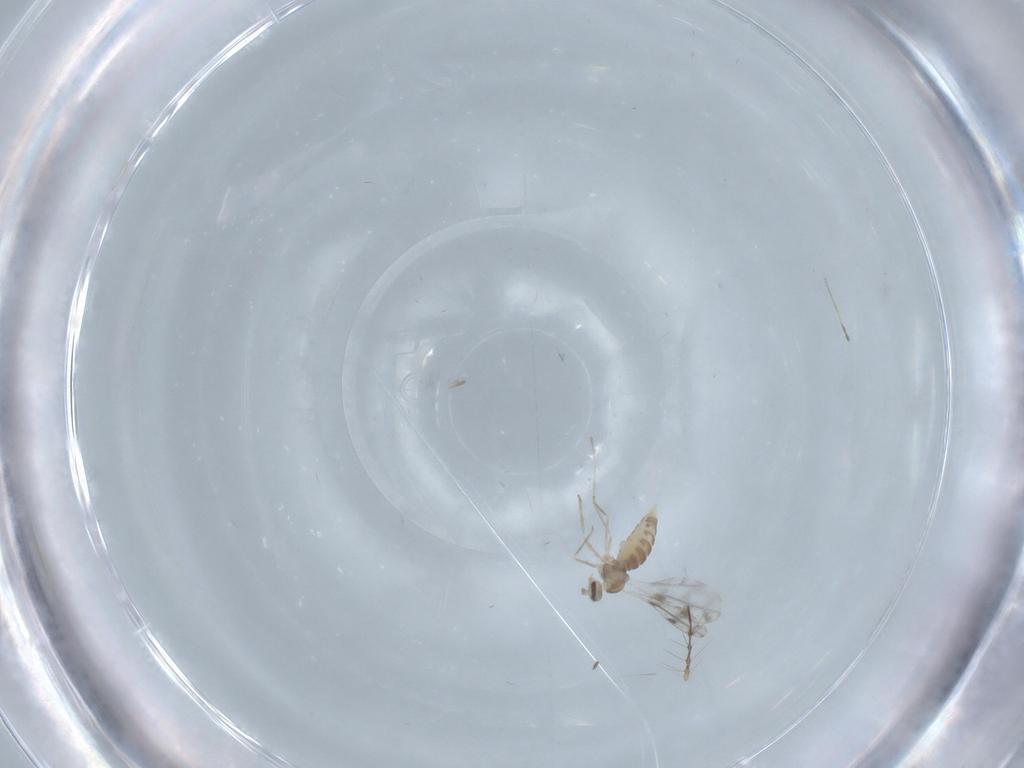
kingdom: Animalia
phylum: Arthropoda
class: Insecta
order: Diptera
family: Cecidomyiidae
